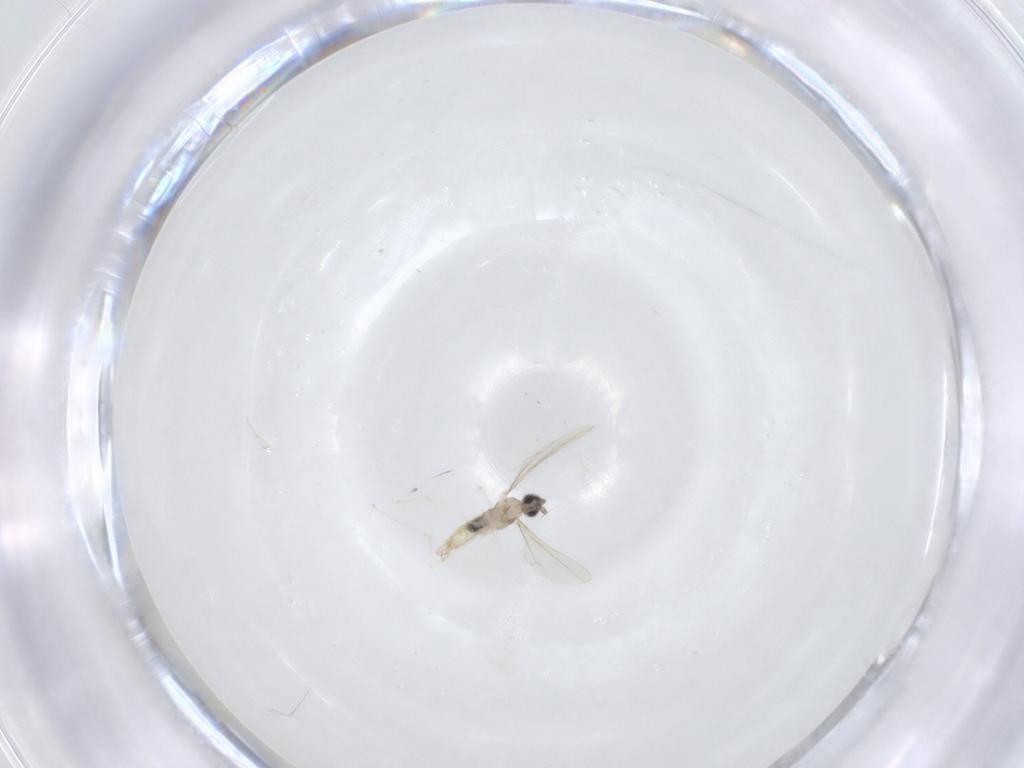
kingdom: Animalia
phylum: Arthropoda
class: Insecta
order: Diptera
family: Cecidomyiidae
